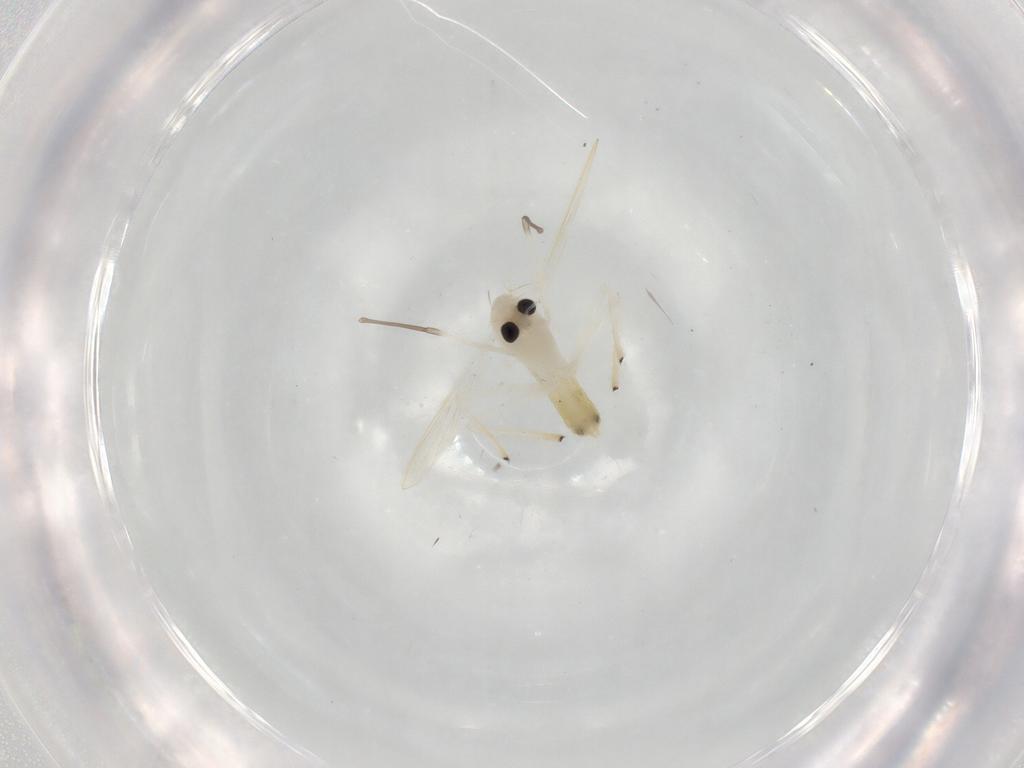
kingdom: Animalia
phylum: Arthropoda
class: Insecta
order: Diptera
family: Chironomidae
